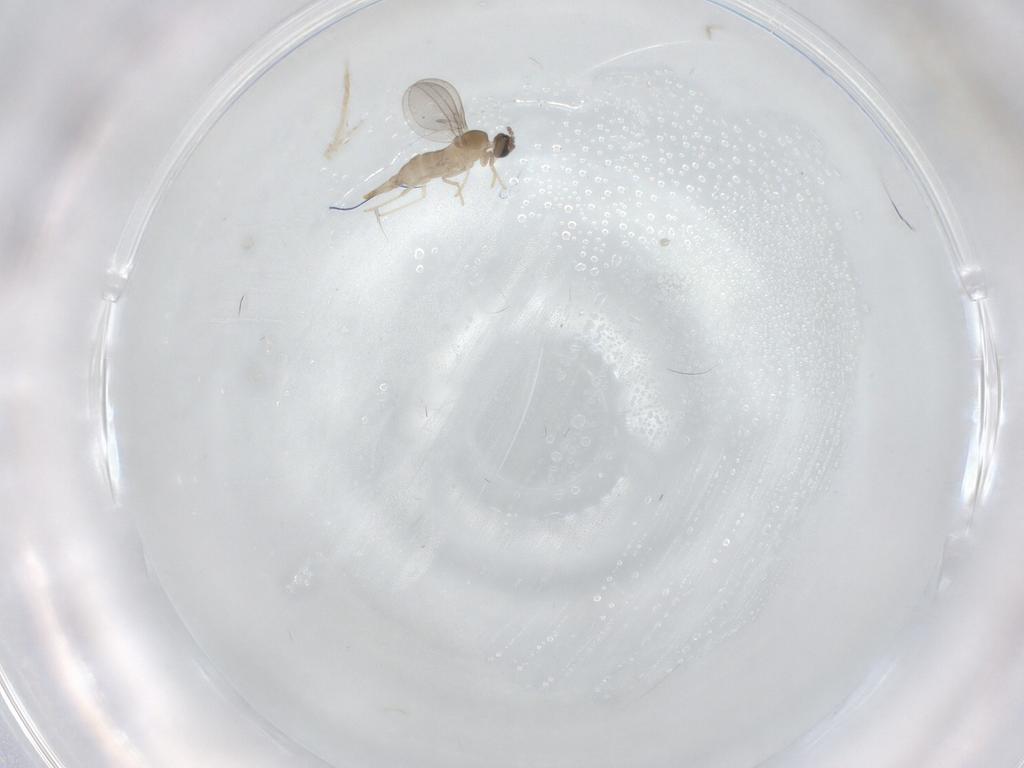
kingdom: Animalia
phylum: Arthropoda
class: Insecta
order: Diptera
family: Cecidomyiidae
